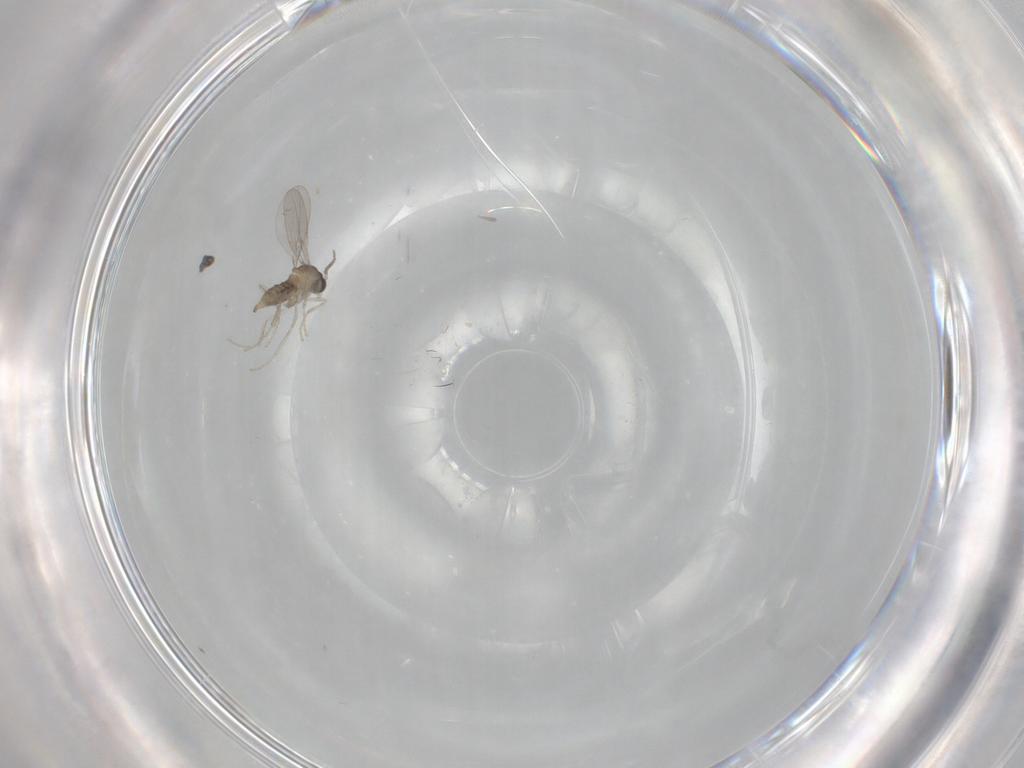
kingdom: Animalia
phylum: Arthropoda
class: Insecta
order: Diptera
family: Cecidomyiidae
